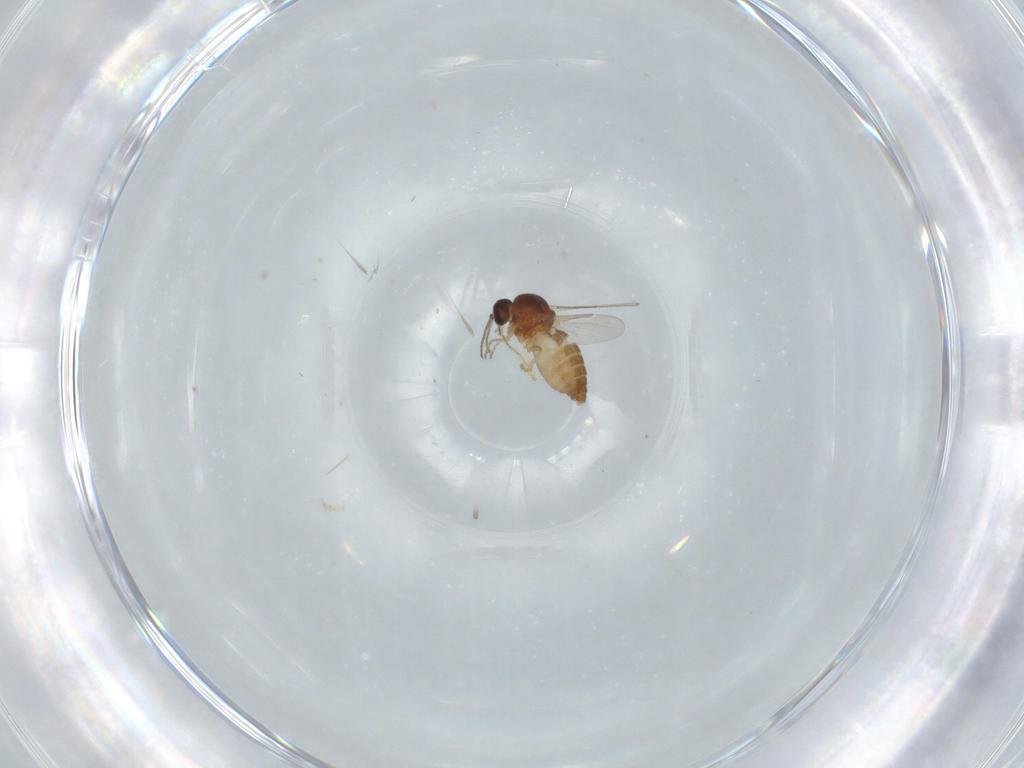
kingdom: Animalia
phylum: Arthropoda
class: Insecta
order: Diptera
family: Ceratopogonidae
